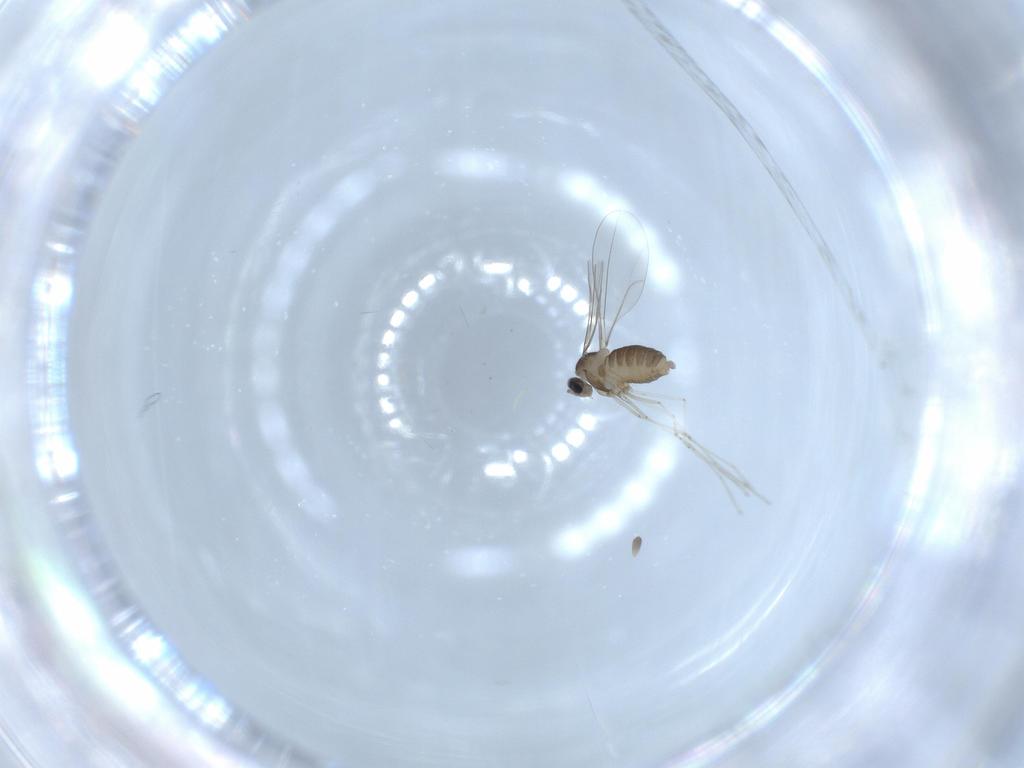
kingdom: Animalia
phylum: Arthropoda
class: Insecta
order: Diptera
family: Cecidomyiidae
